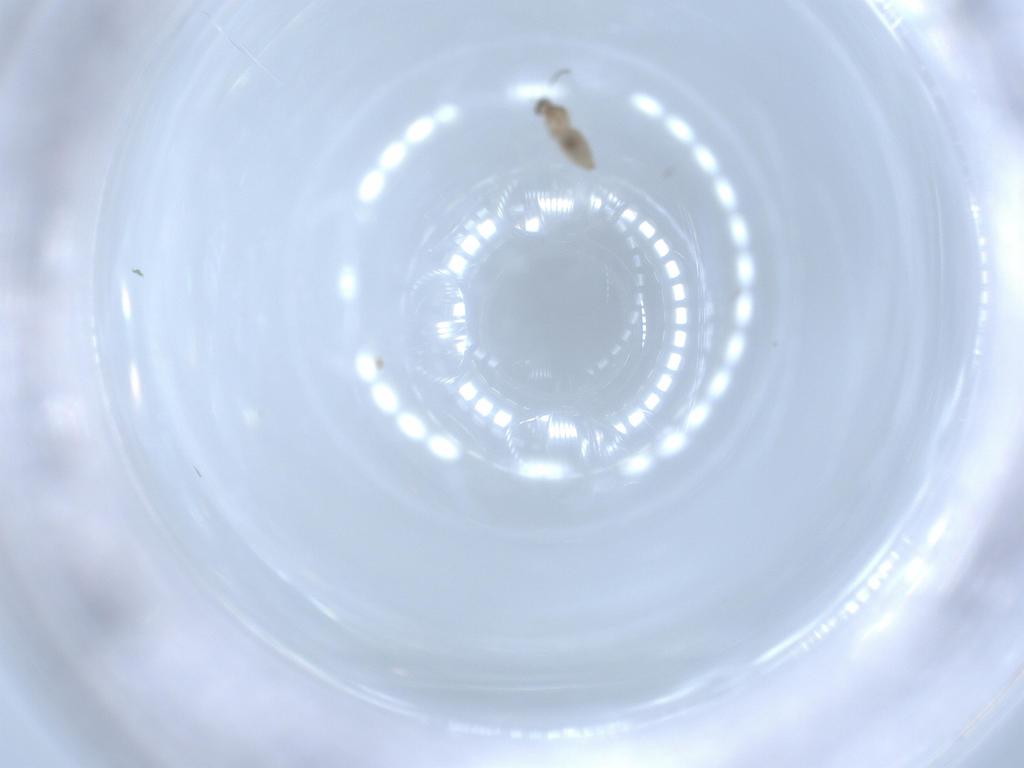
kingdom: Animalia
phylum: Arthropoda
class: Insecta
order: Diptera
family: Cecidomyiidae
